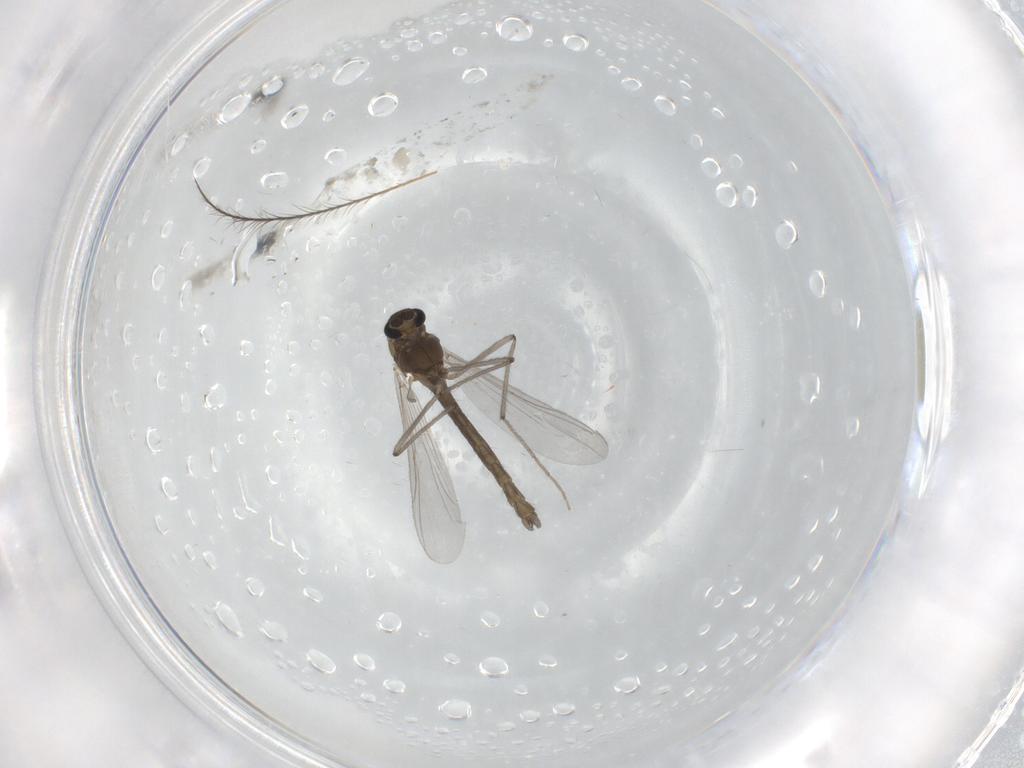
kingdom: Animalia
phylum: Arthropoda
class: Insecta
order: Diptera
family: Chironomidae
